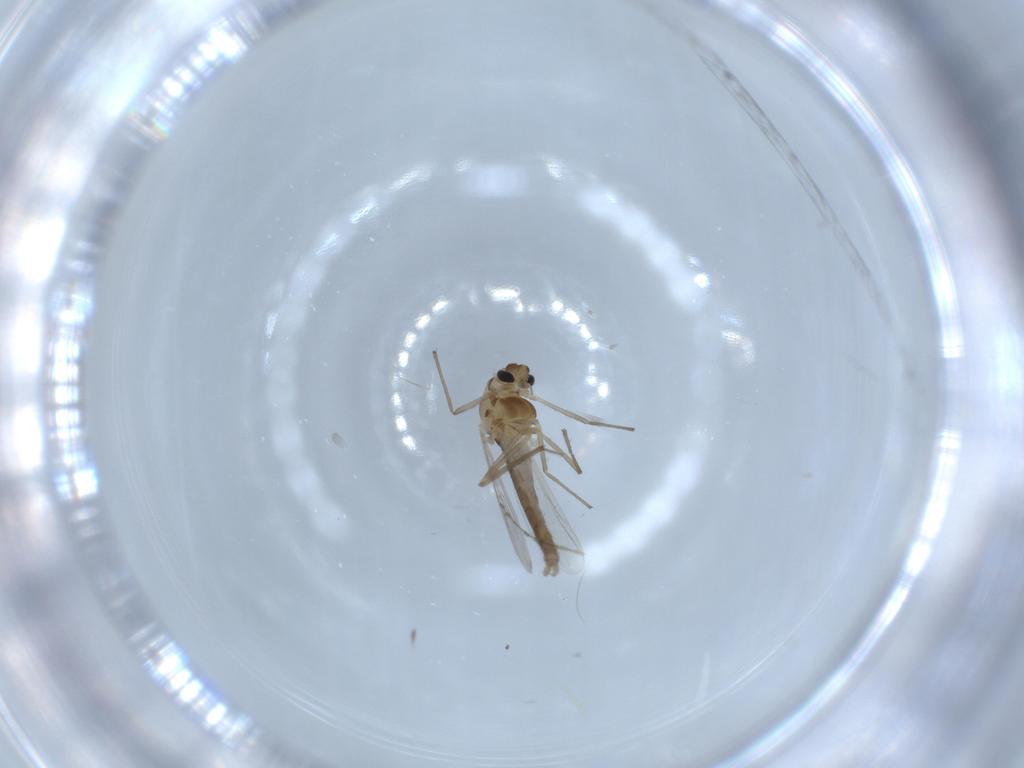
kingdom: Animalia
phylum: Arthropoda
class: Insecta
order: Diptera
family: Chironomidae
